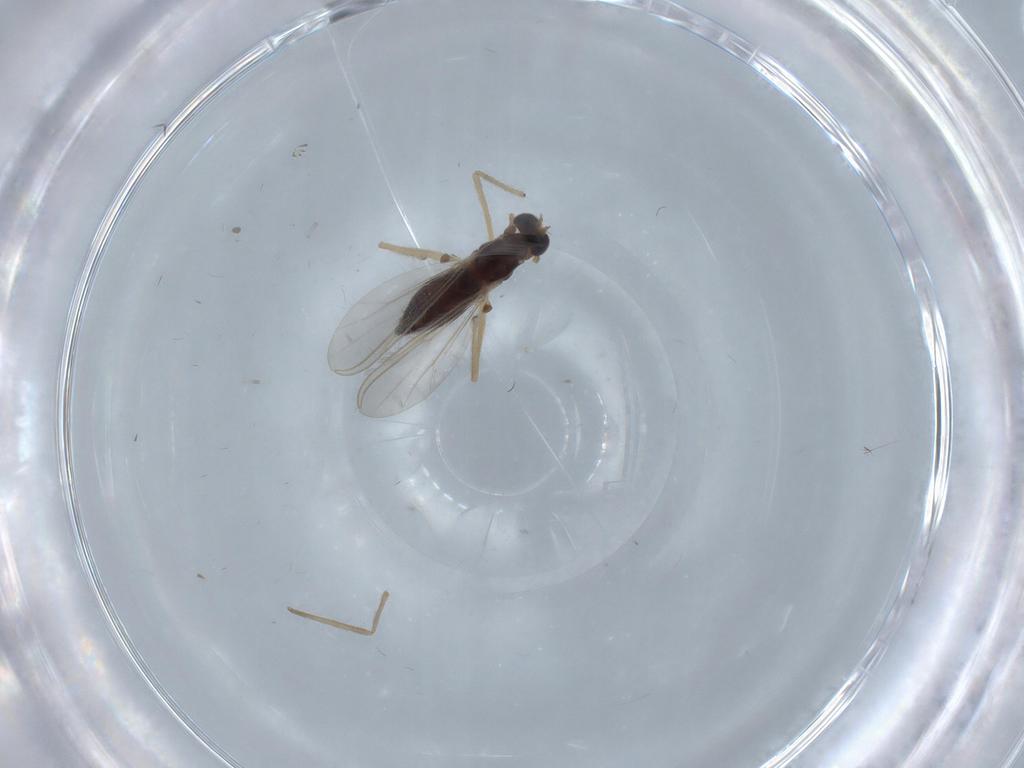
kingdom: Animalia
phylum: Arthropoda
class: Insecta
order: Diptera
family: Chironomidae
